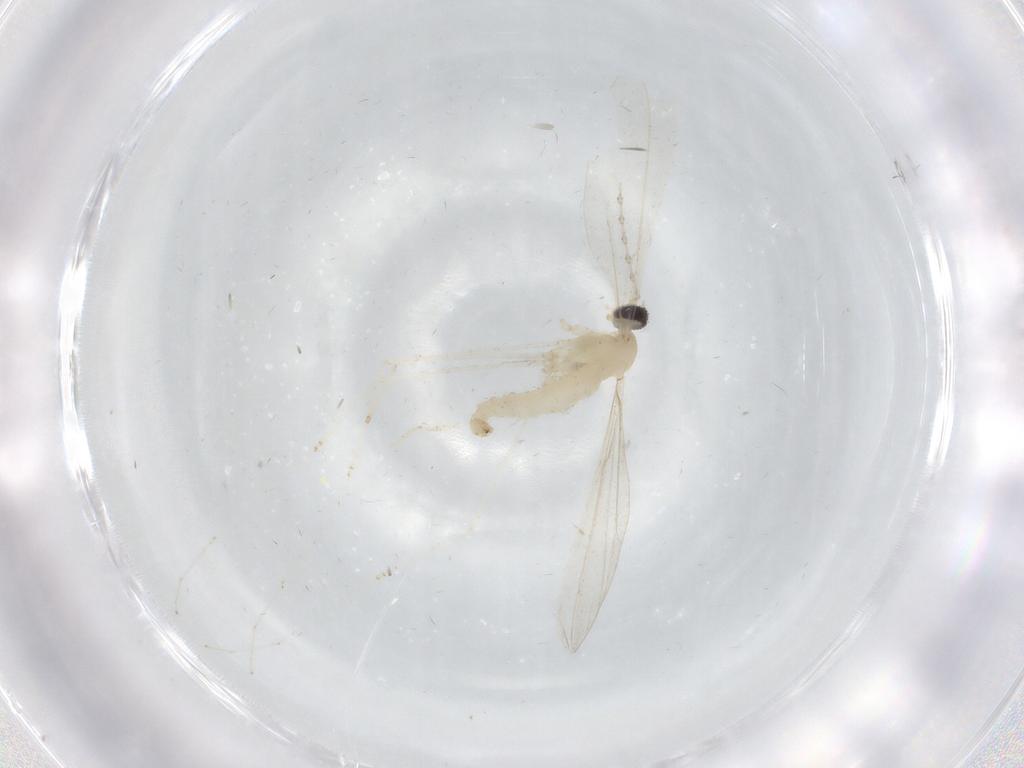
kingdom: Animalia
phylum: Arthropoda
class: Insecta
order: Diptera
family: Cecidomyiidae
